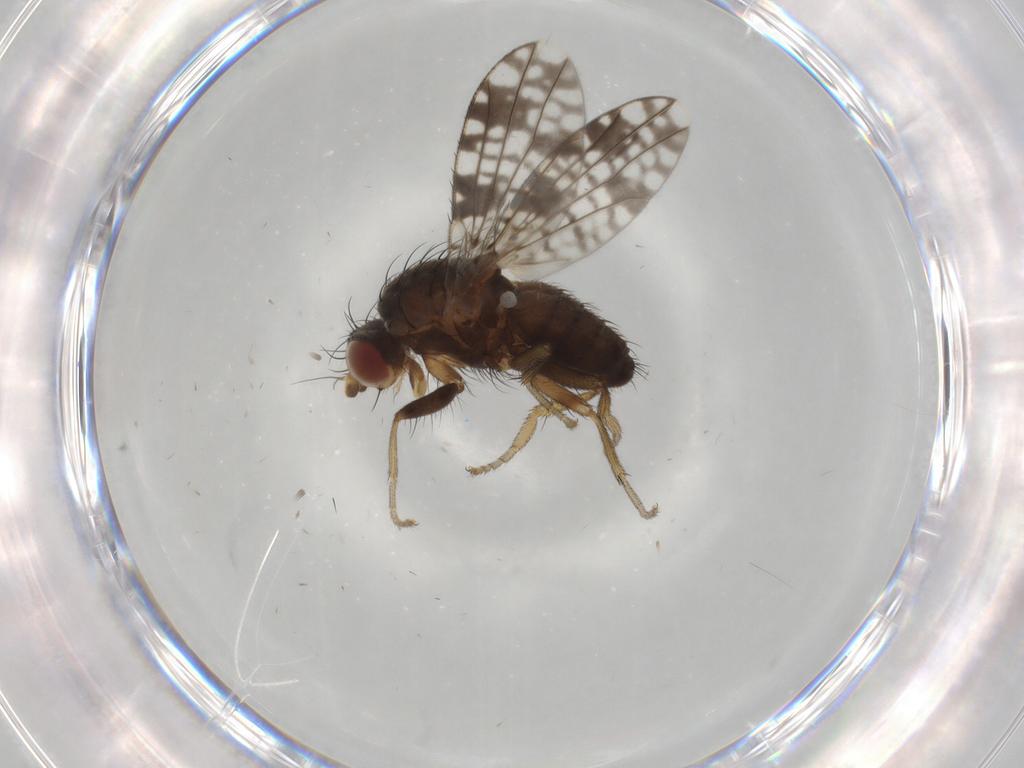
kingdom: Animalia
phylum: Arthropoda
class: Insecta
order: Diptera
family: Tephritidae
